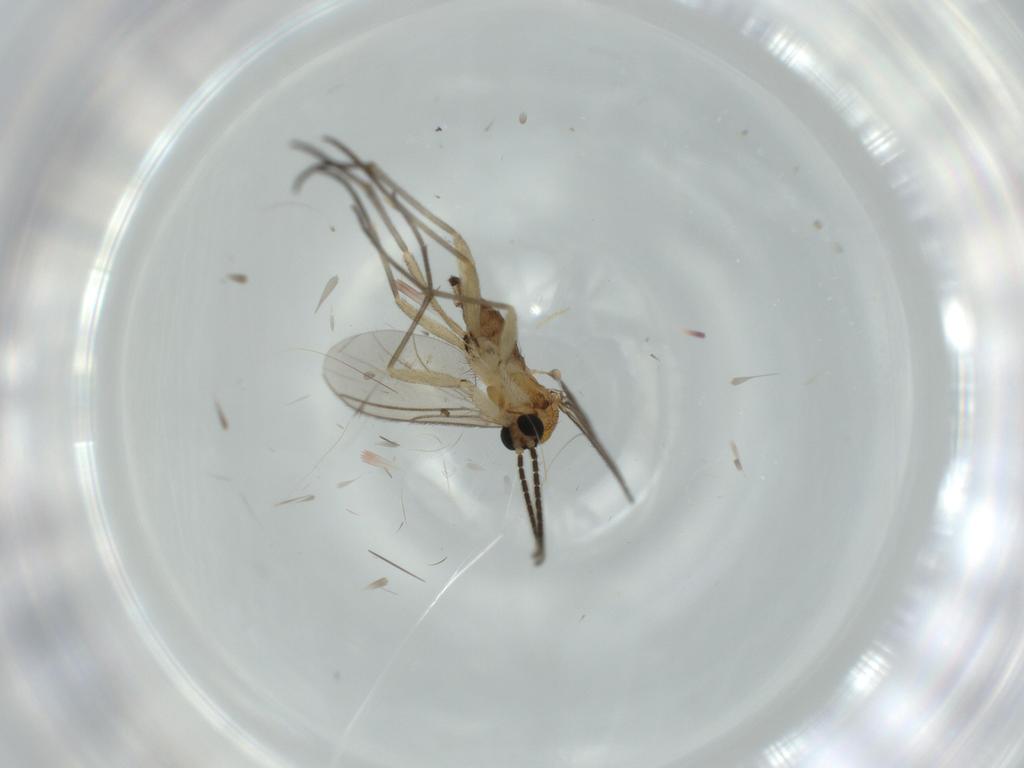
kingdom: Animalia
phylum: Arthropoda
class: Insecta
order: Diptera
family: Sciaridae
